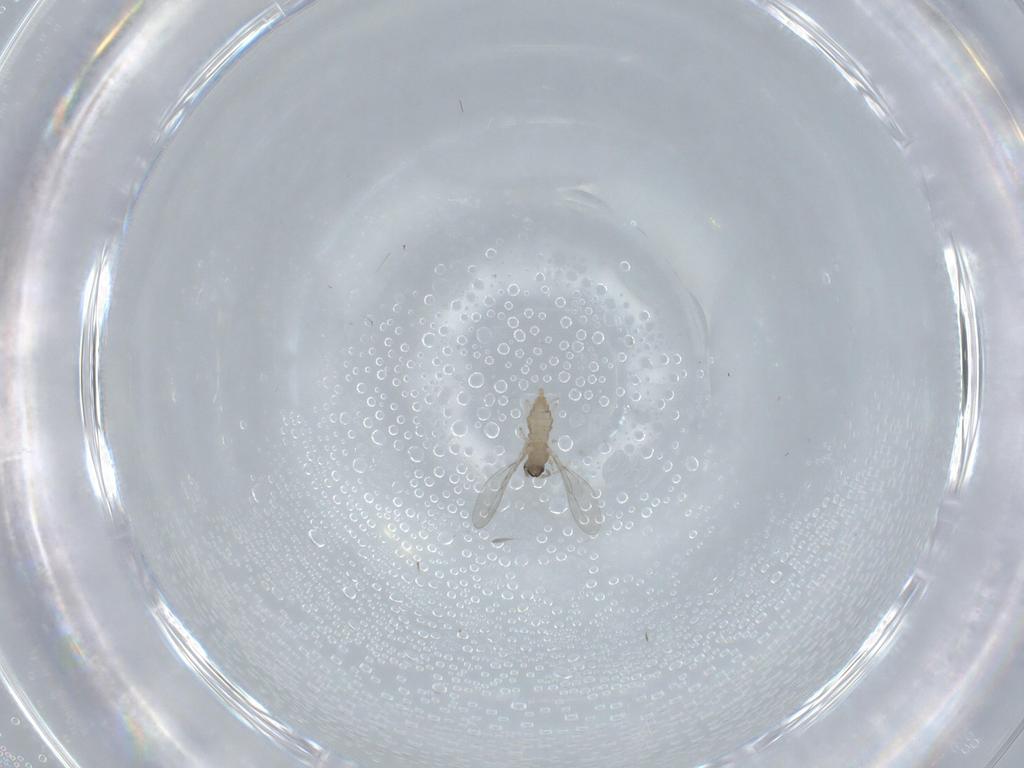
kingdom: Animalia
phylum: Arthropoda
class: Insecta
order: Diptera
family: Cecidomyiidae
